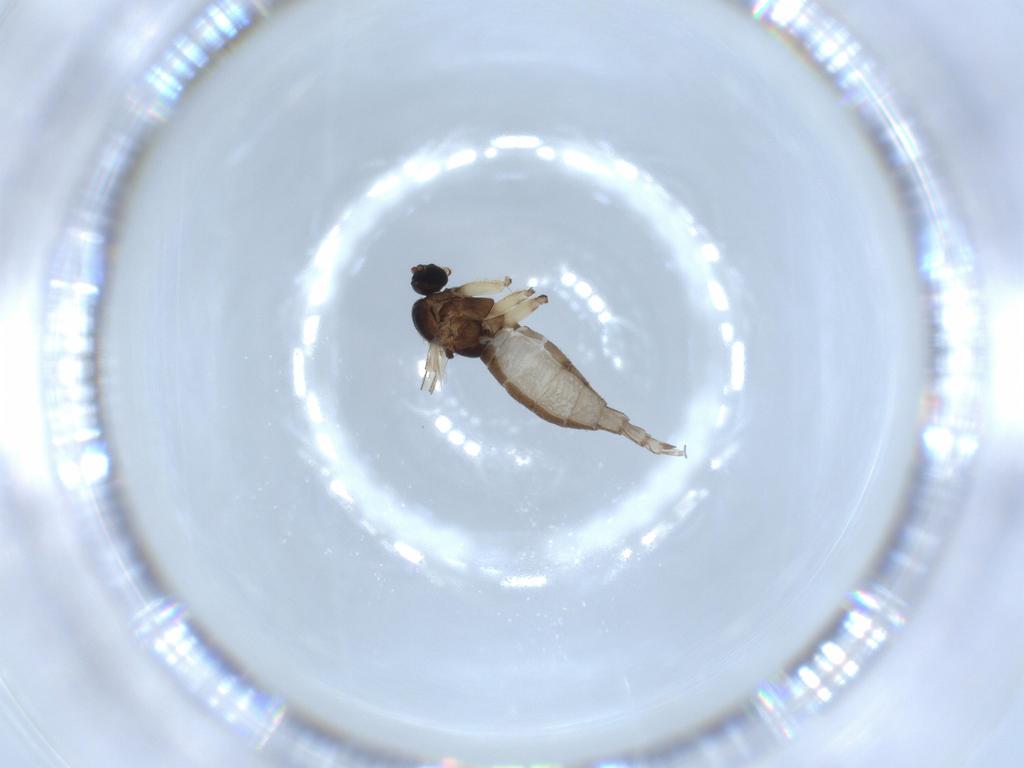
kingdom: Animalia
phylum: Arthropoda
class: Insecta
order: Diptera
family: Sciaridae
